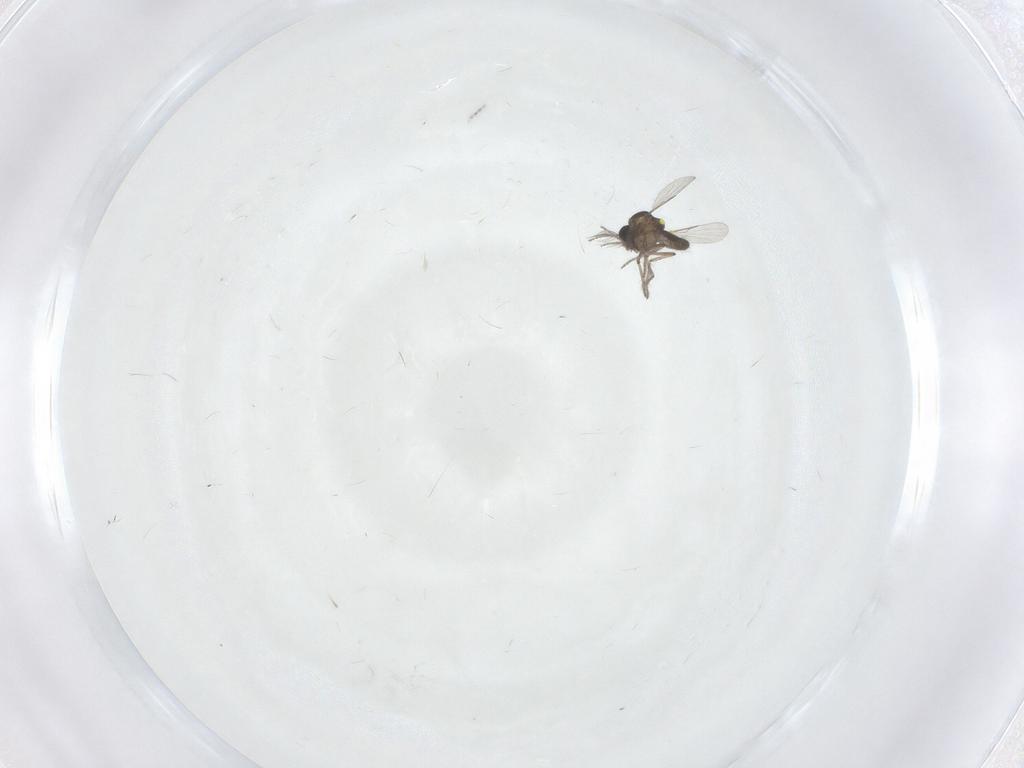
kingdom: Animalia
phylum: Arthropoda
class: Insecta
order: Diptera
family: Ceratopogonidae
